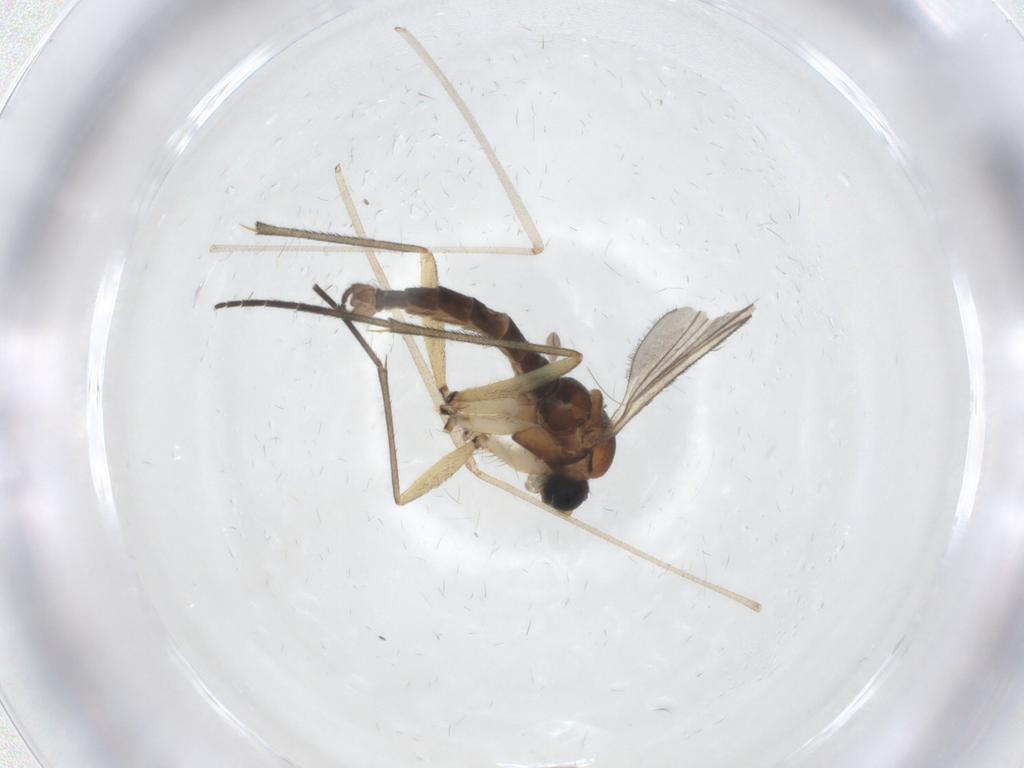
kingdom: Animalia
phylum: Arthropoda
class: Insecta
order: Diptera
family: Sciaridae
